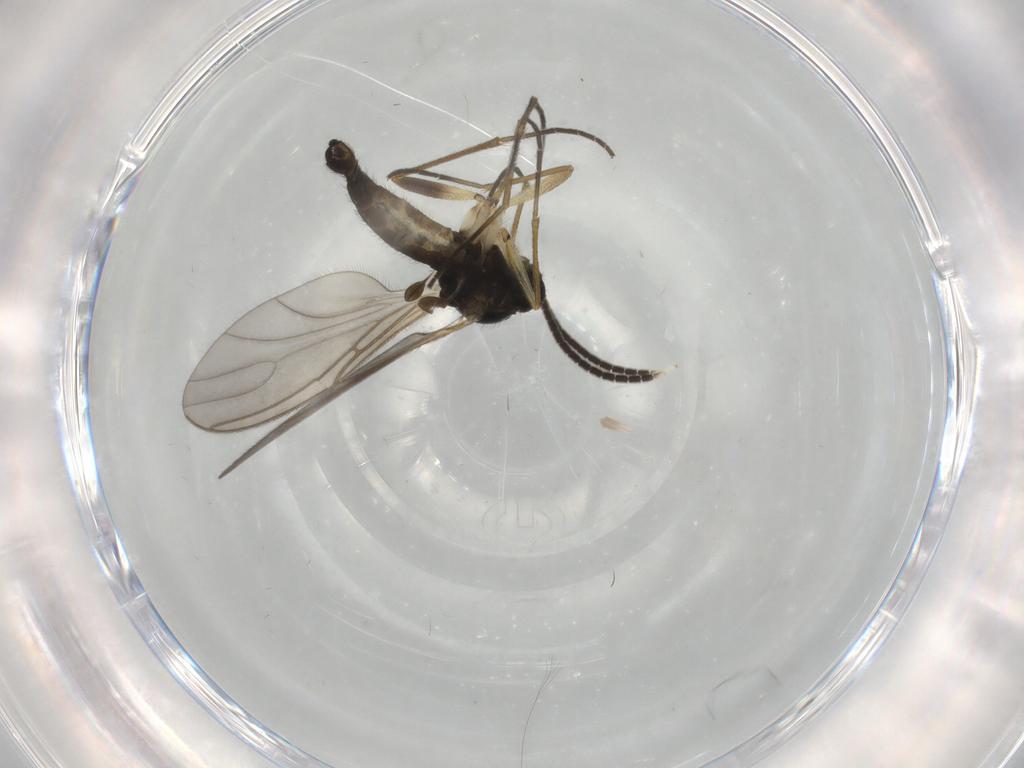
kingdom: Animalia
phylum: Arthropoda
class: Insecta
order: Diptera
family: Sciaridae
